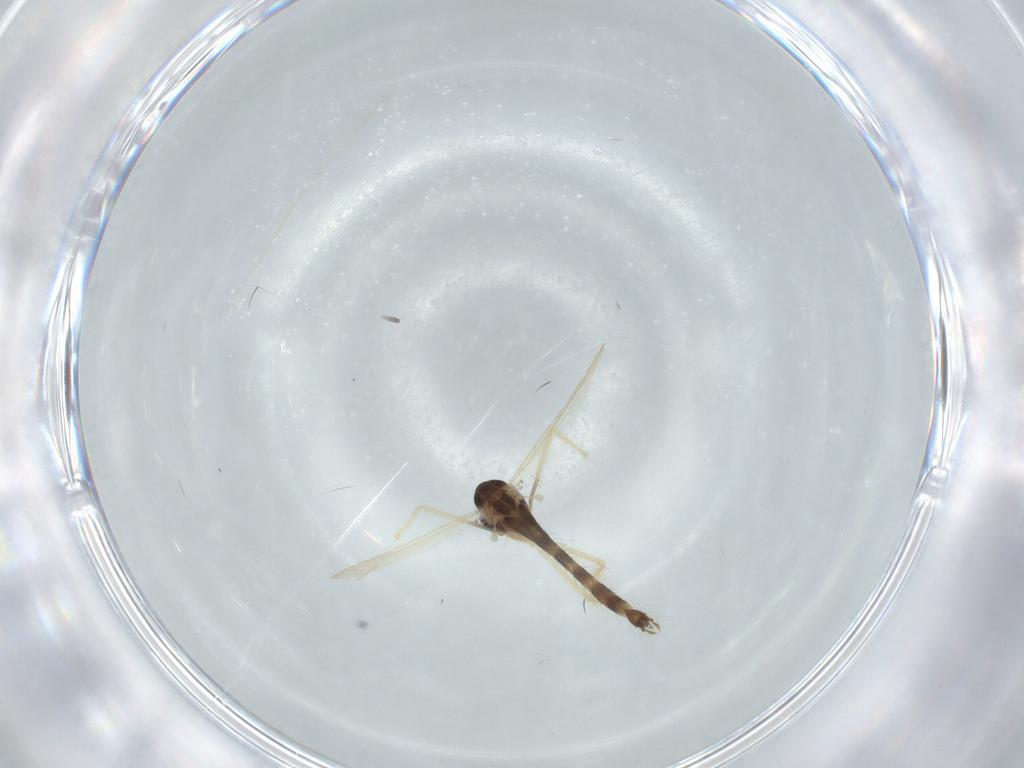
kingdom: Animalia
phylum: Arthropoda
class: Insecta
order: Diptera
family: Chironomidae
